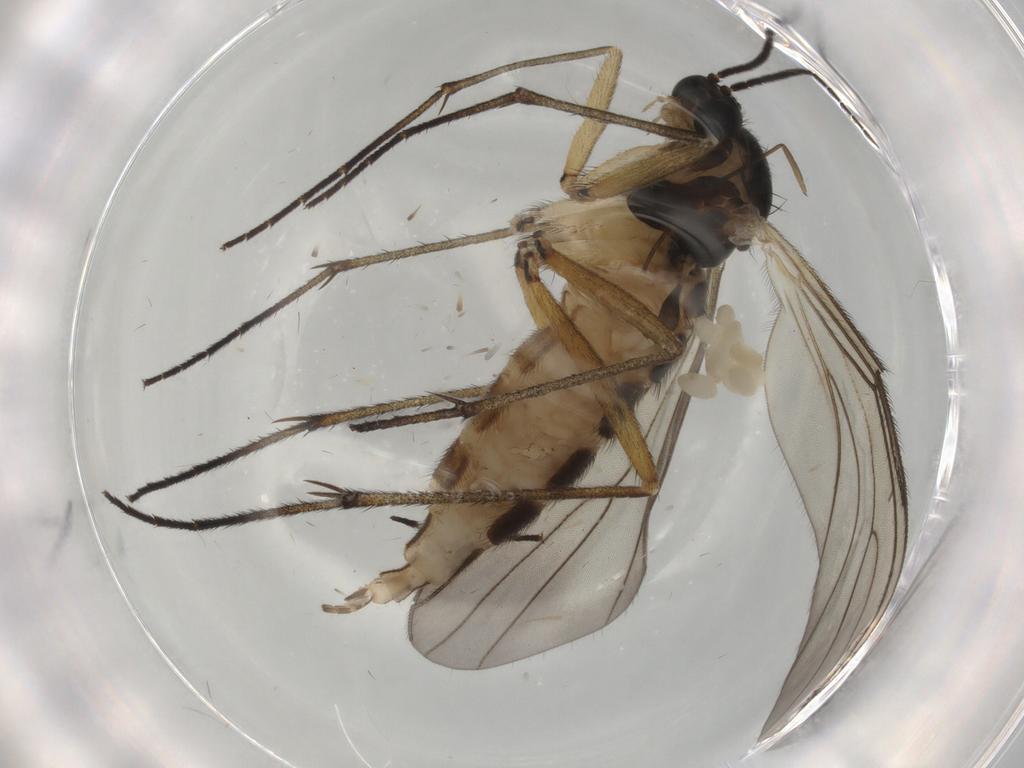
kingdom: Animalia
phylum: Arthropoda
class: Insecta
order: Diptera
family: Sciaridae
